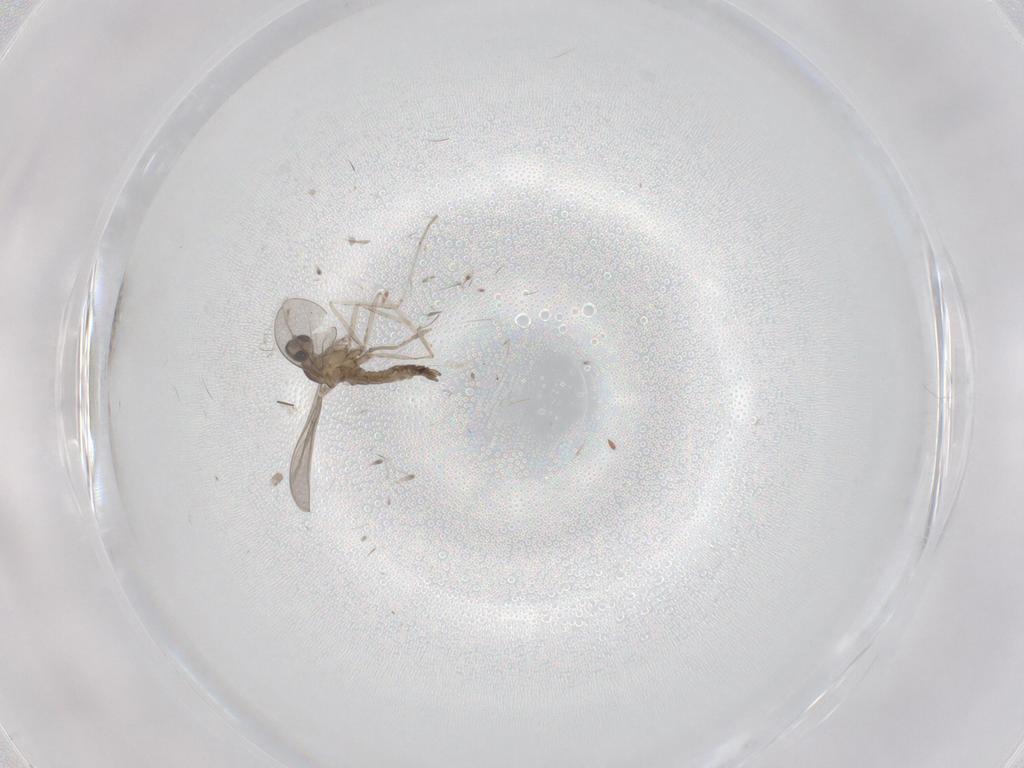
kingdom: Animalia
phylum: Arthropoda
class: Insecta
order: Diptera
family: Cecidomyiidae
